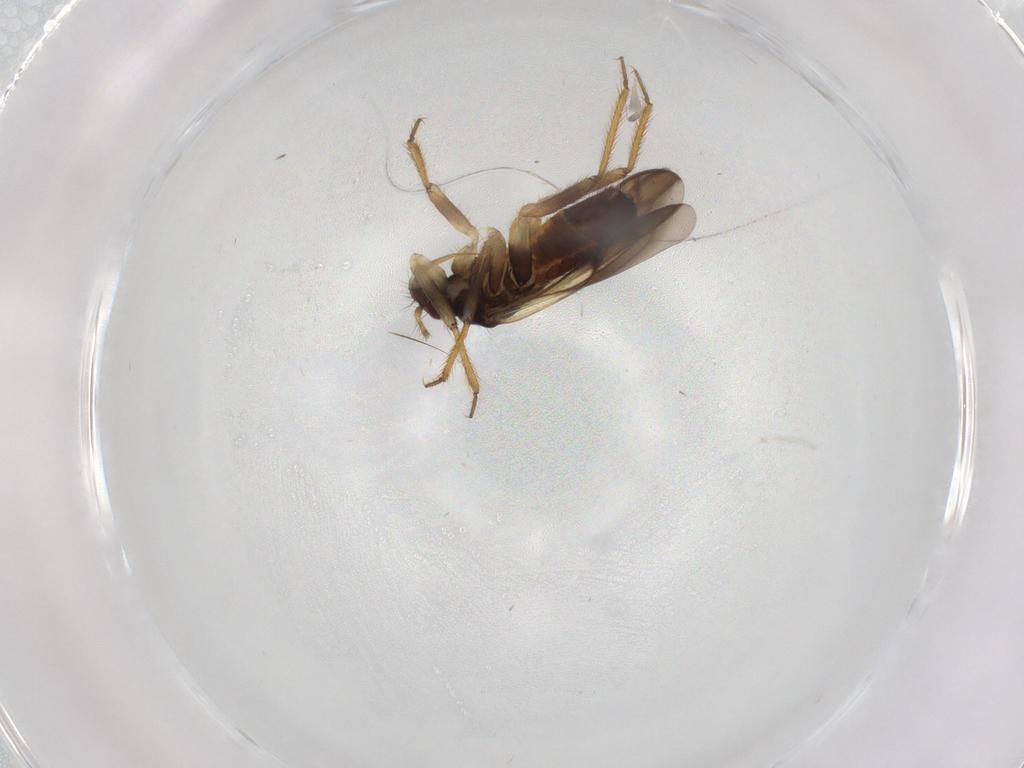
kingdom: Animalia
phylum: Arthropoda
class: Insecta
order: Hemiptera
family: Ceratocombidae
